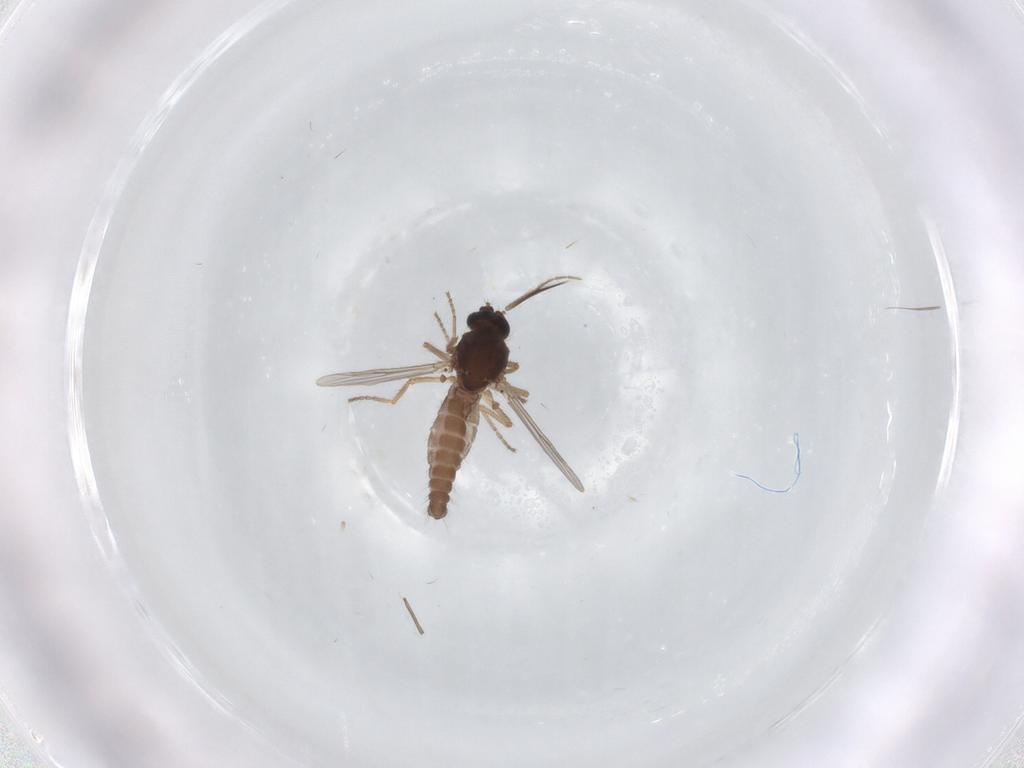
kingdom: Animalia
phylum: Arthropoda
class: Insecta
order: Diptera
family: Ceratopogonidae
